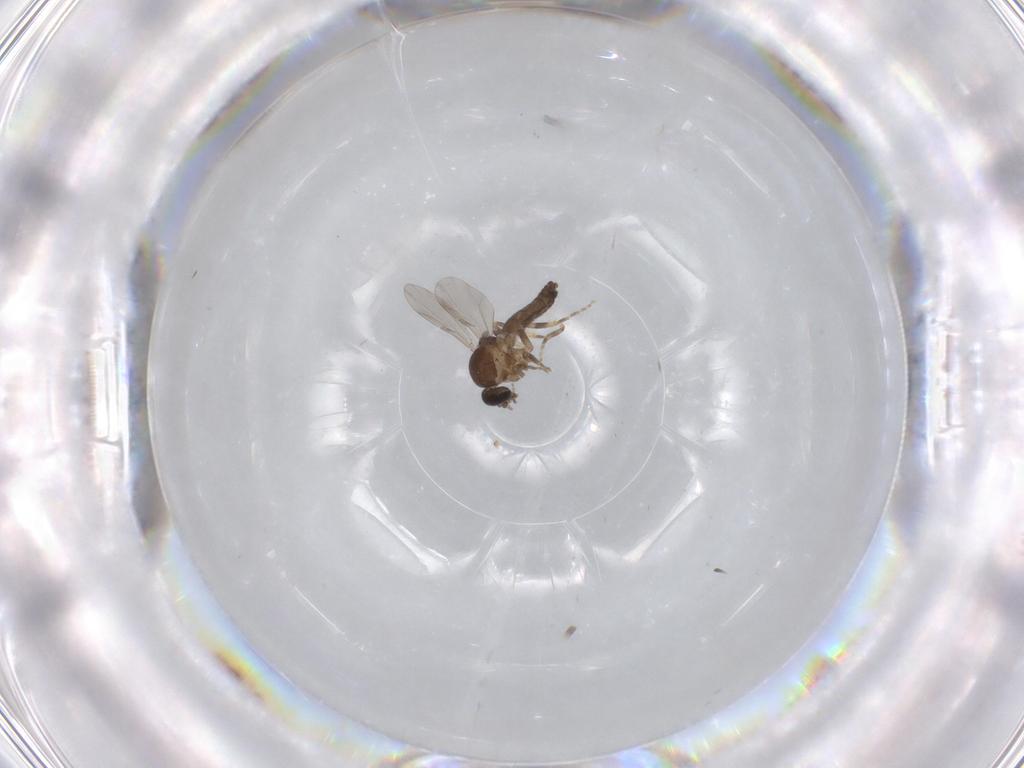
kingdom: Animalia
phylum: Arthropoda
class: Insecta
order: Diptera
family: Ceratopogonidae
